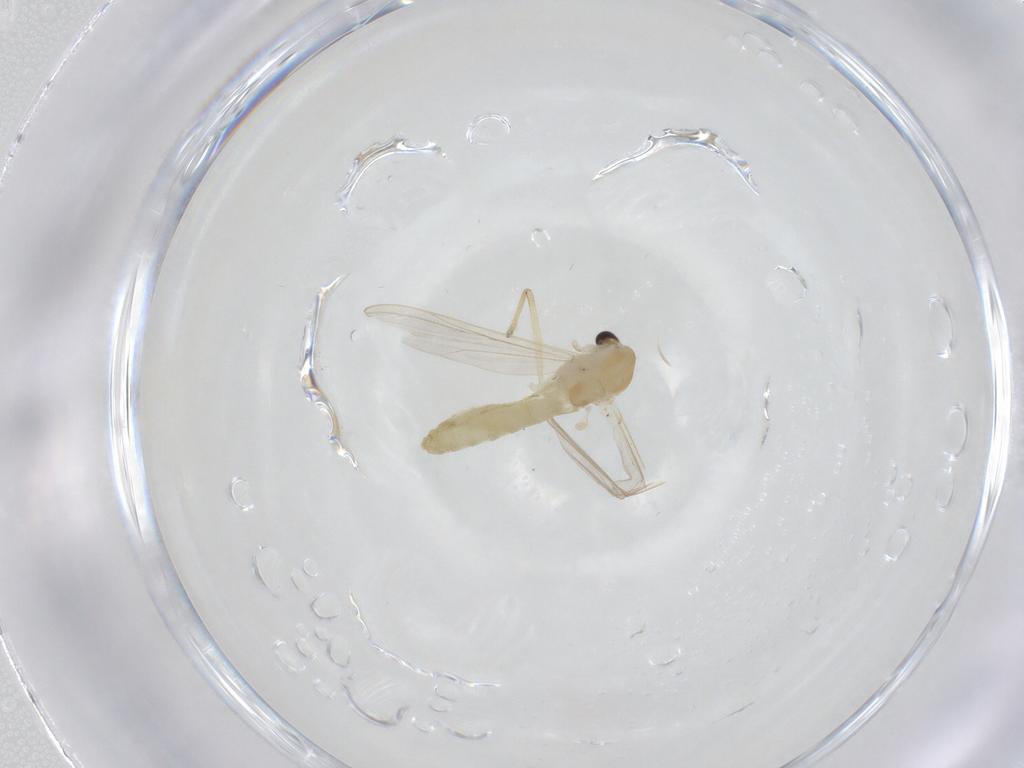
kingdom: Animalia
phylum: Arthropoda
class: Insecta
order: Diptera
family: Chironomidae
